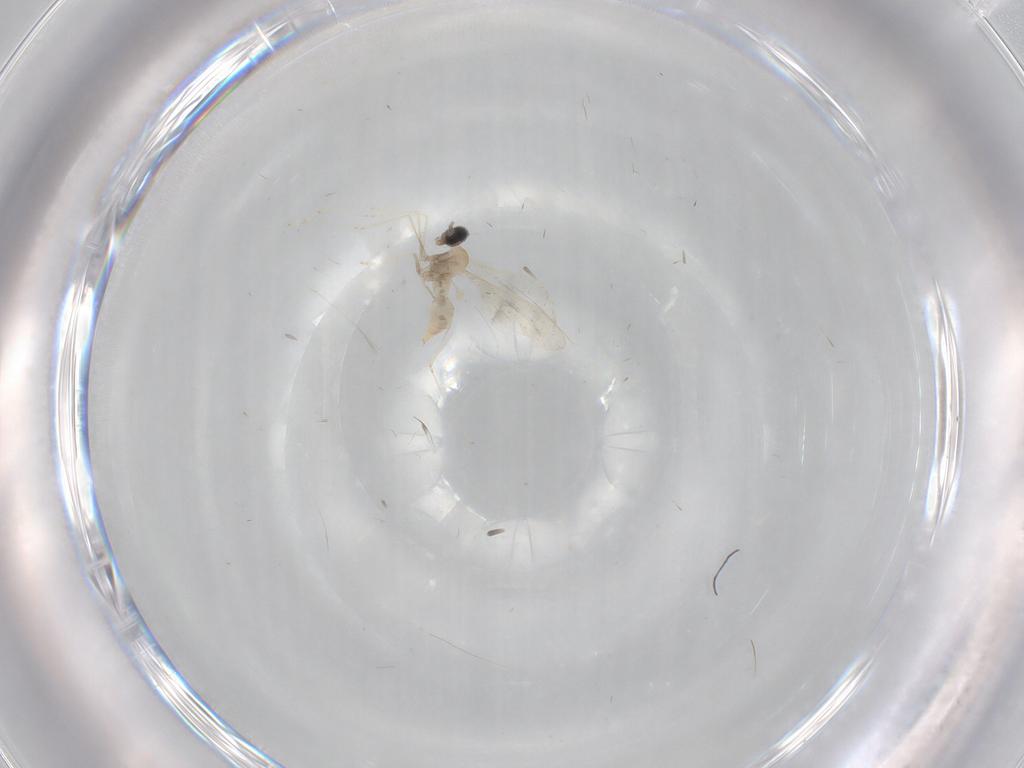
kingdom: Animalia
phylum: Arthropoda
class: Insecta
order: Diptera
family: Cecidomyiidae
